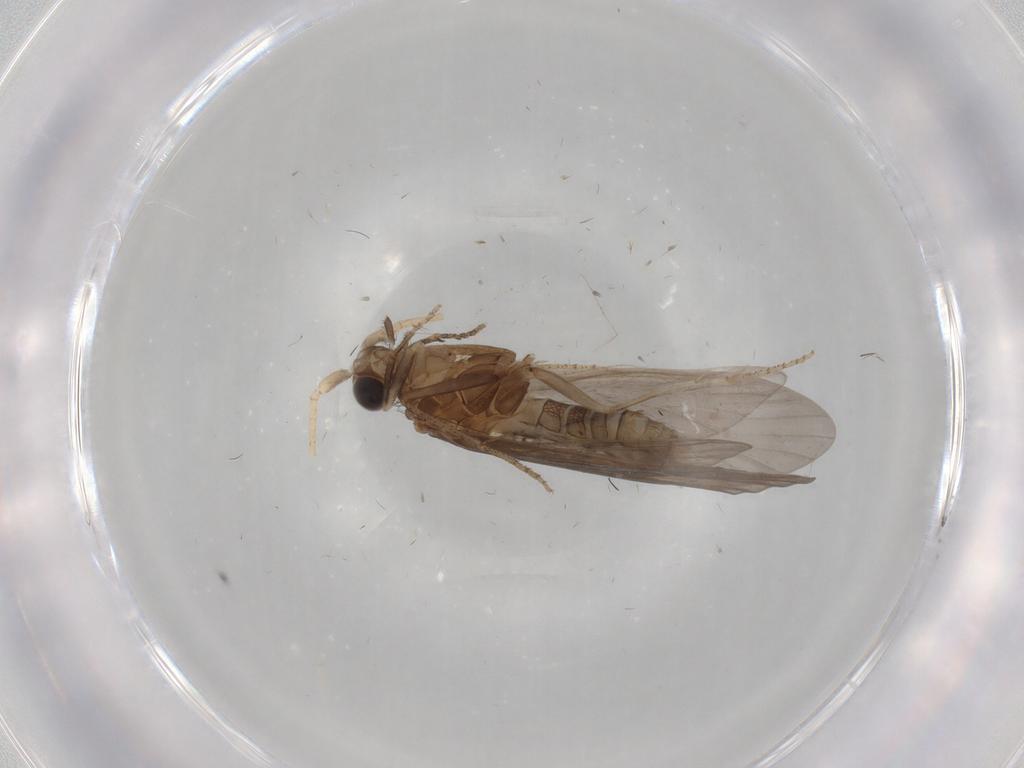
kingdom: Animalia
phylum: Arthropoda
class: Insecta
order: Trichoptera
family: Helicopsychidae
